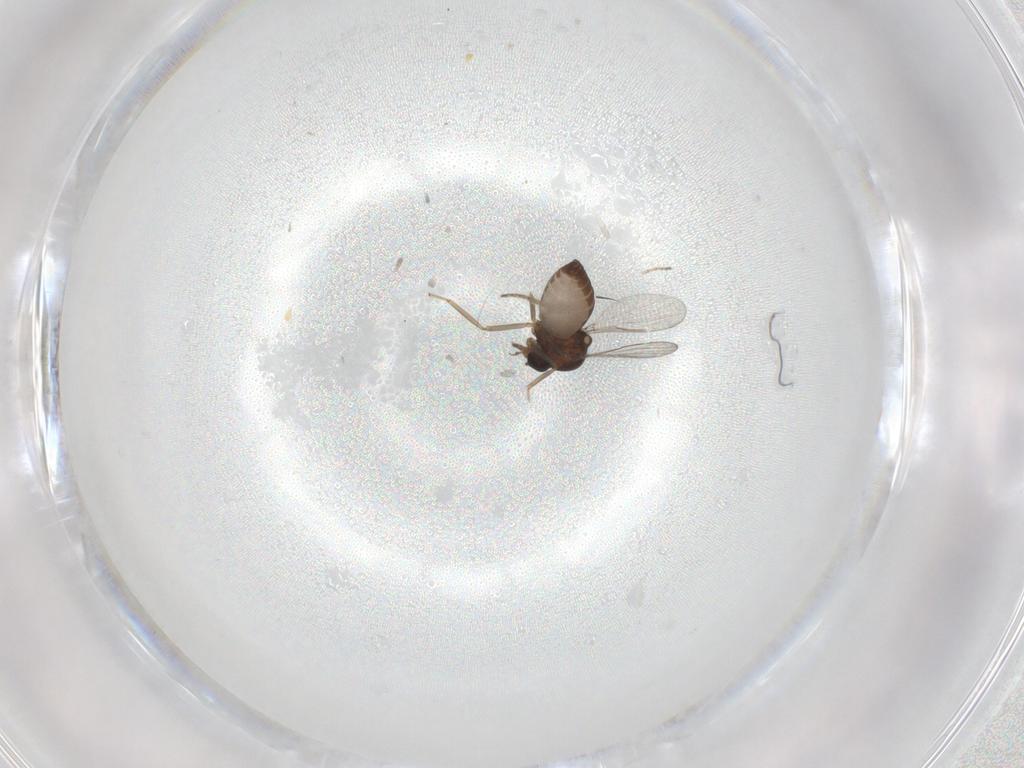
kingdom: Animalia
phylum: Arthropoda
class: Insecta
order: Diptera
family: Ceratopogonidae
